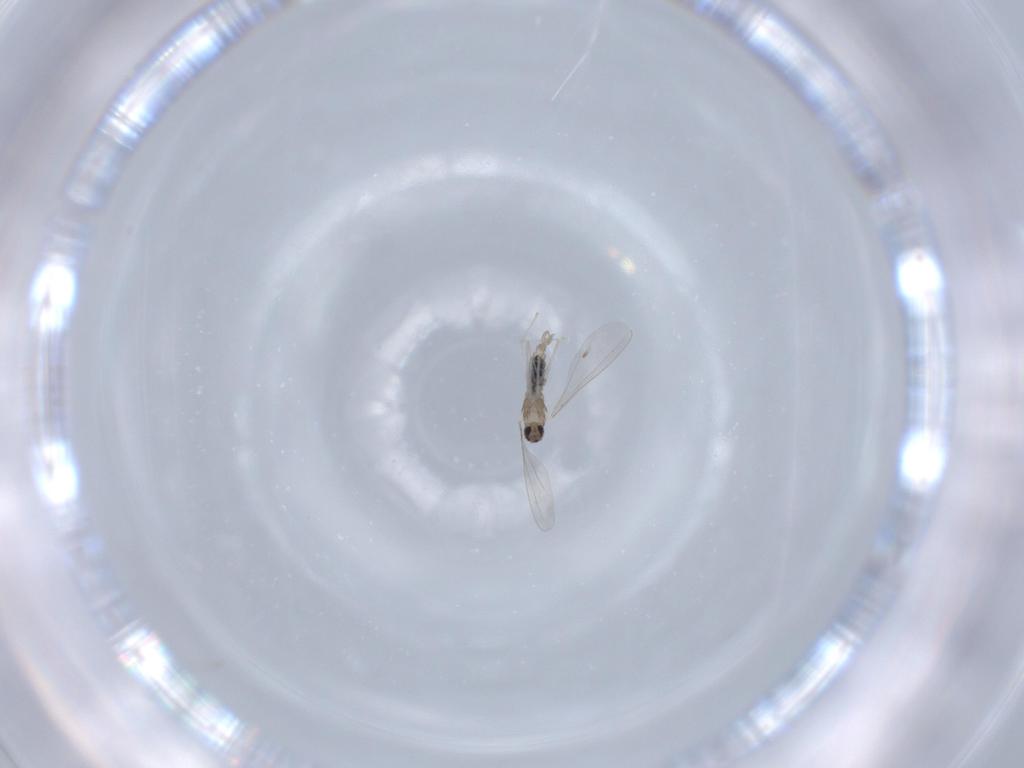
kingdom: Animalia
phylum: Arthropoda
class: Insecta
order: Diptera
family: Cecidomyiidae
